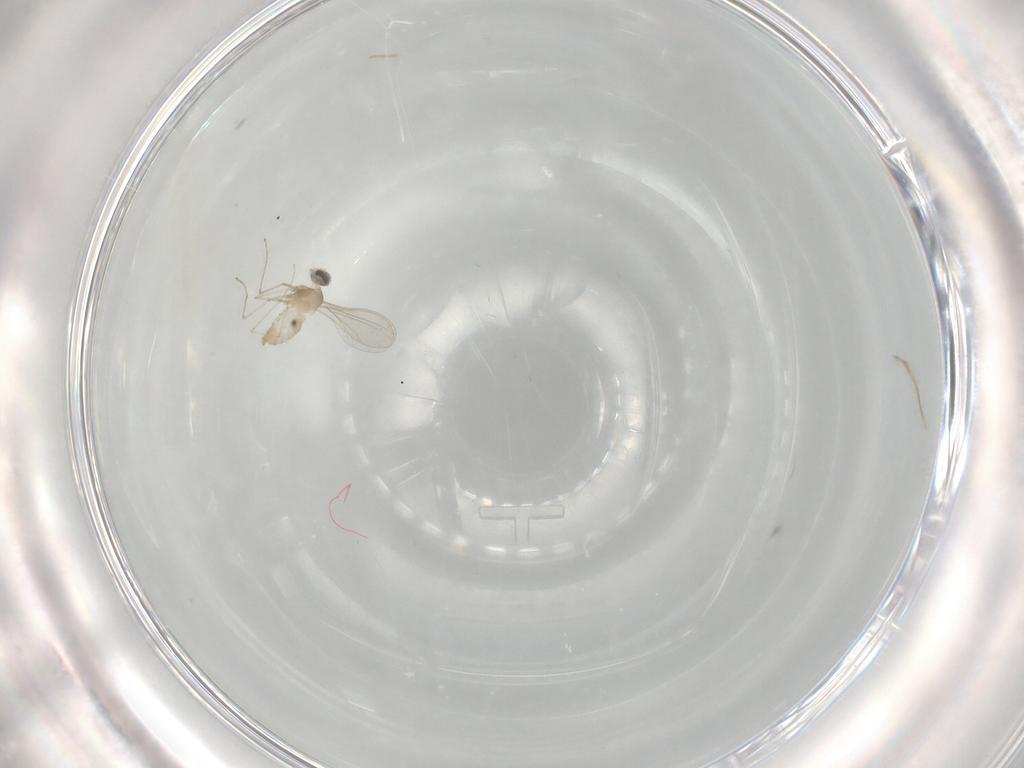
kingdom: Animalia
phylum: Arthropoda
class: Insecta
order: Diptera
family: Cecidomyiidae
